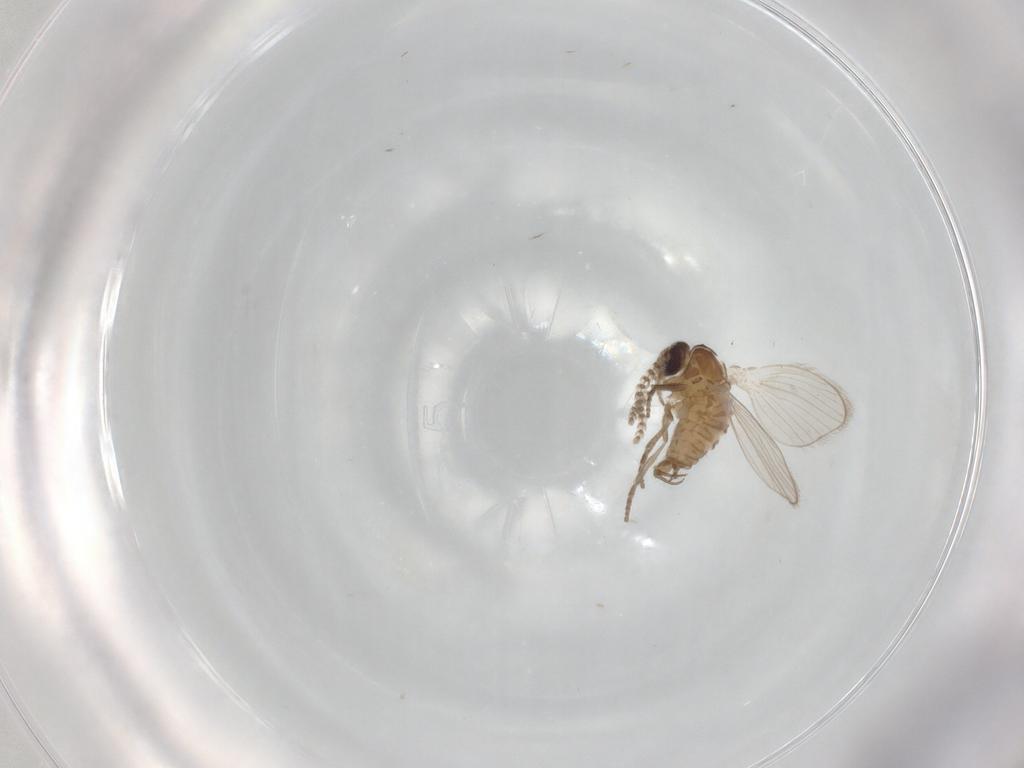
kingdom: Animalia
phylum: Arthropoda
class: Insecta
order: Diptera
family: Psychodidae
